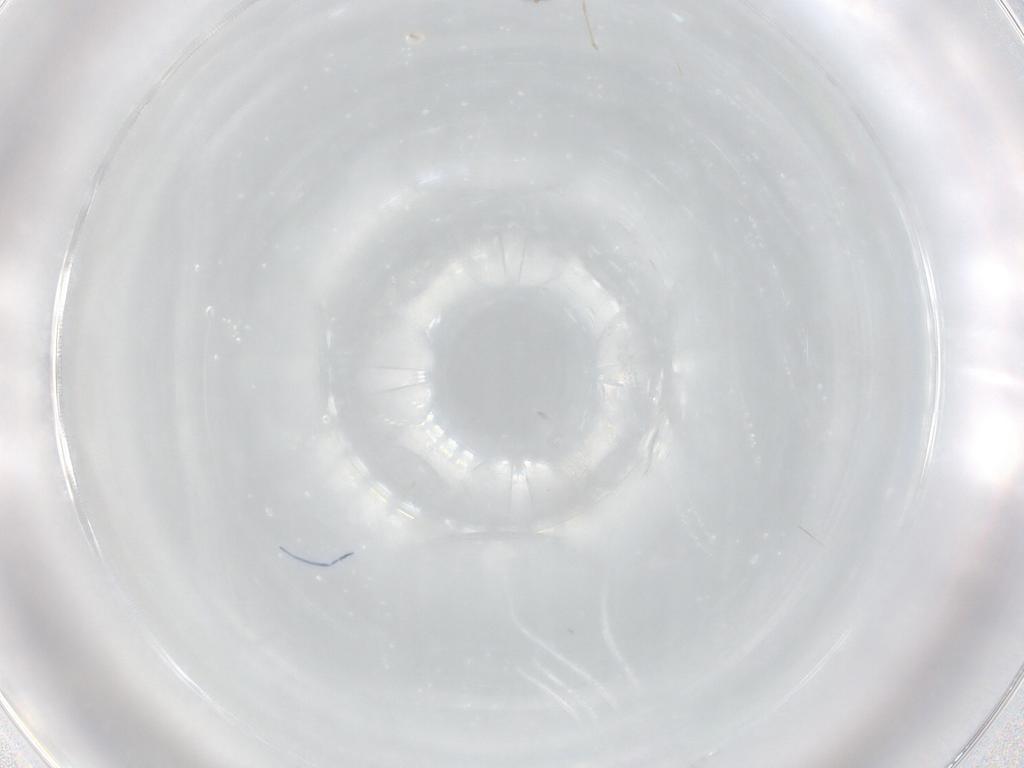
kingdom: Animalia
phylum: Arthropoda
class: Insecta
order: Diptera
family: Cecidomyiidae
